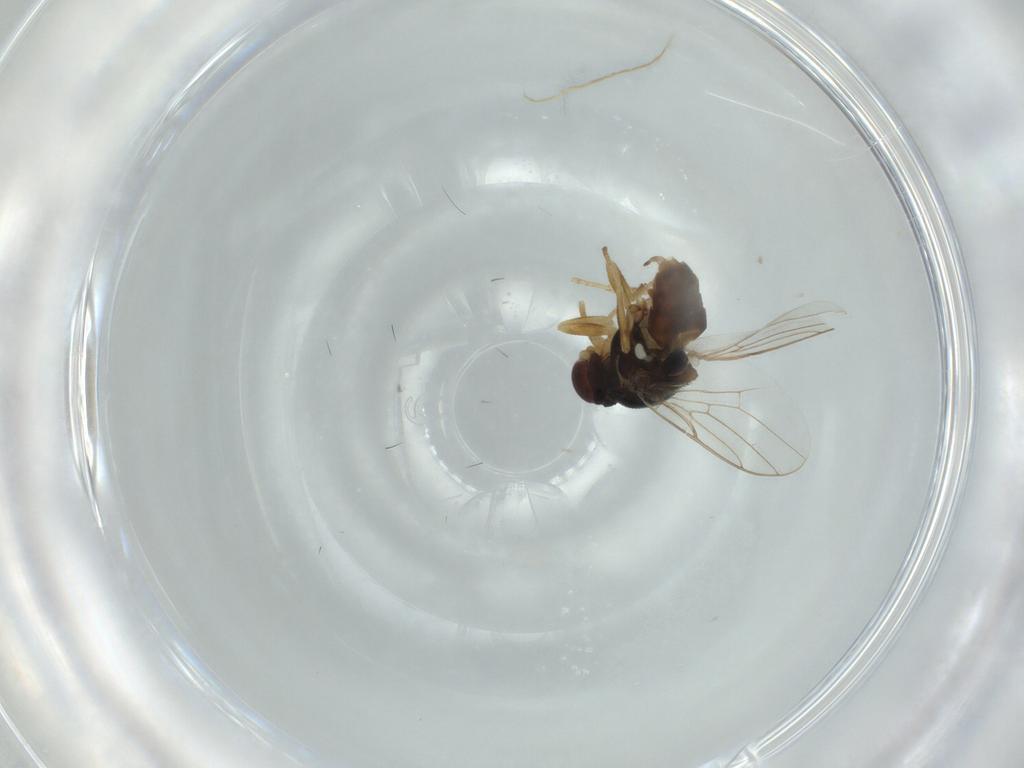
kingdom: Animalia
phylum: Arthropoda
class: Insecta
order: Diptera
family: Chloropidae
